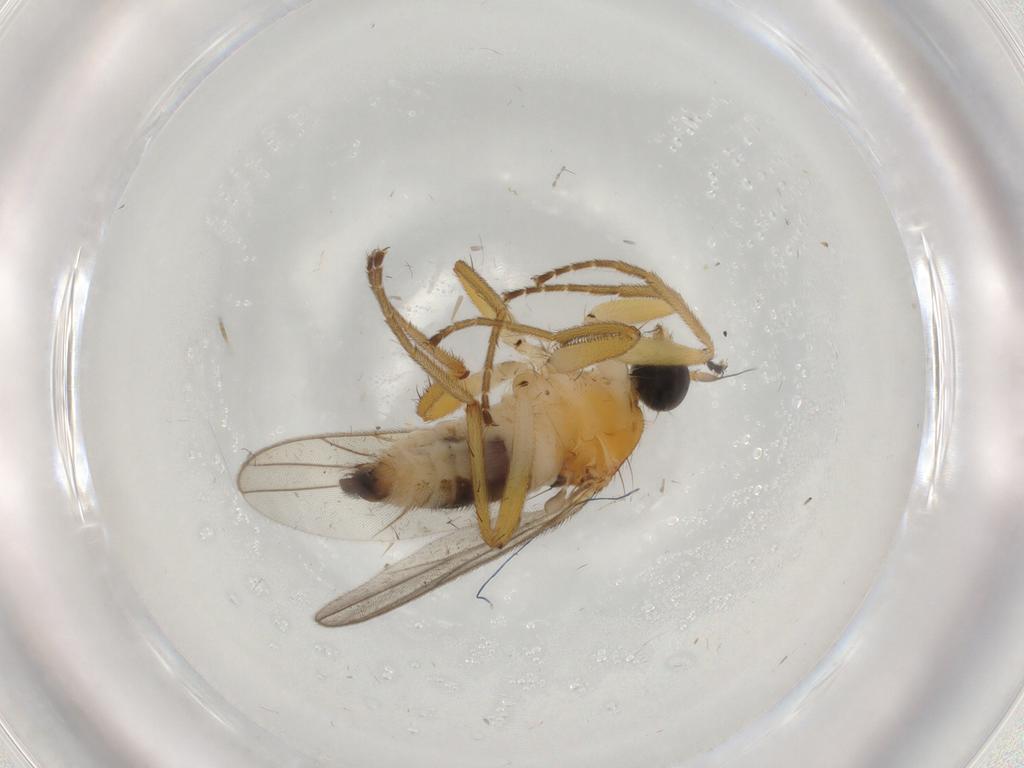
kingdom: Animalia
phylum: Arthropoda
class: Insecta
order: Diptera
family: Hybotidae
